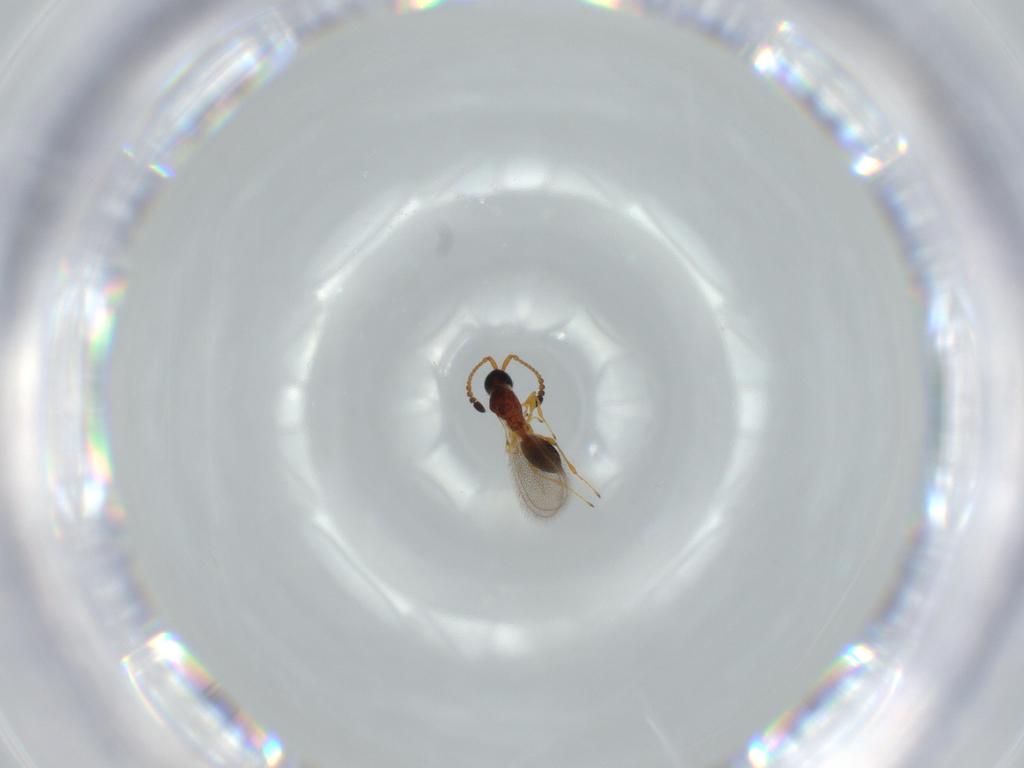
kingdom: Animalia
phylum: Arthropoda
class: Insecta
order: Hymenoptera
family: Diapriidae
